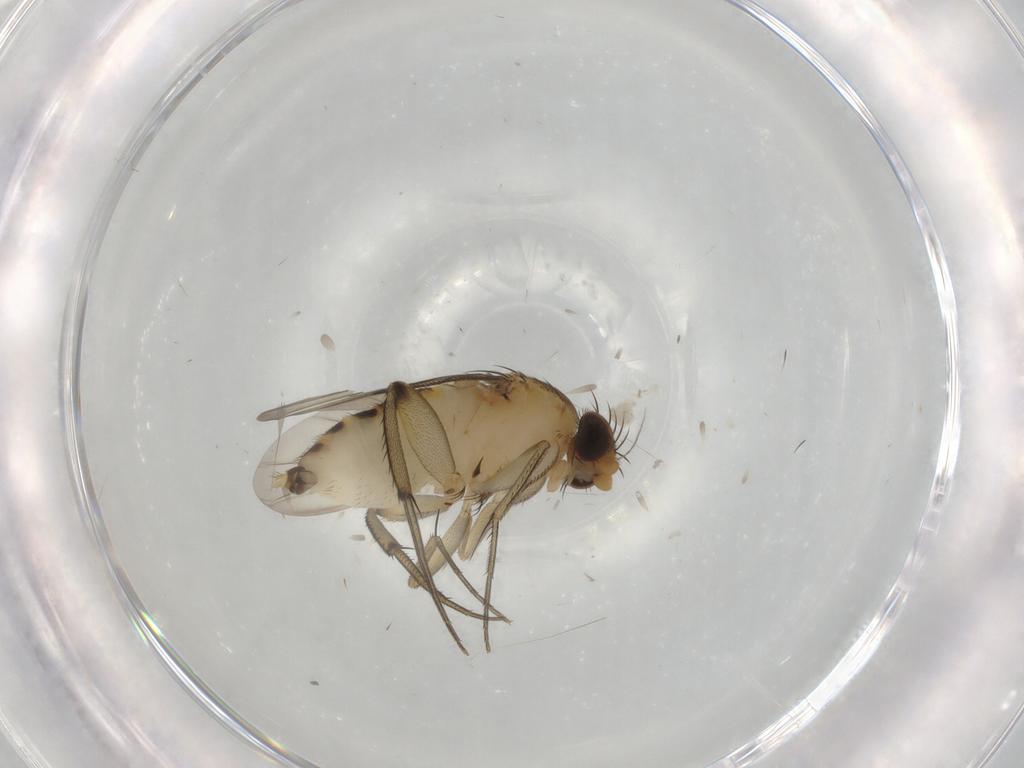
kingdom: Animalia
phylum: Arthropoda
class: Insecta
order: Diptera
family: Phoridae
